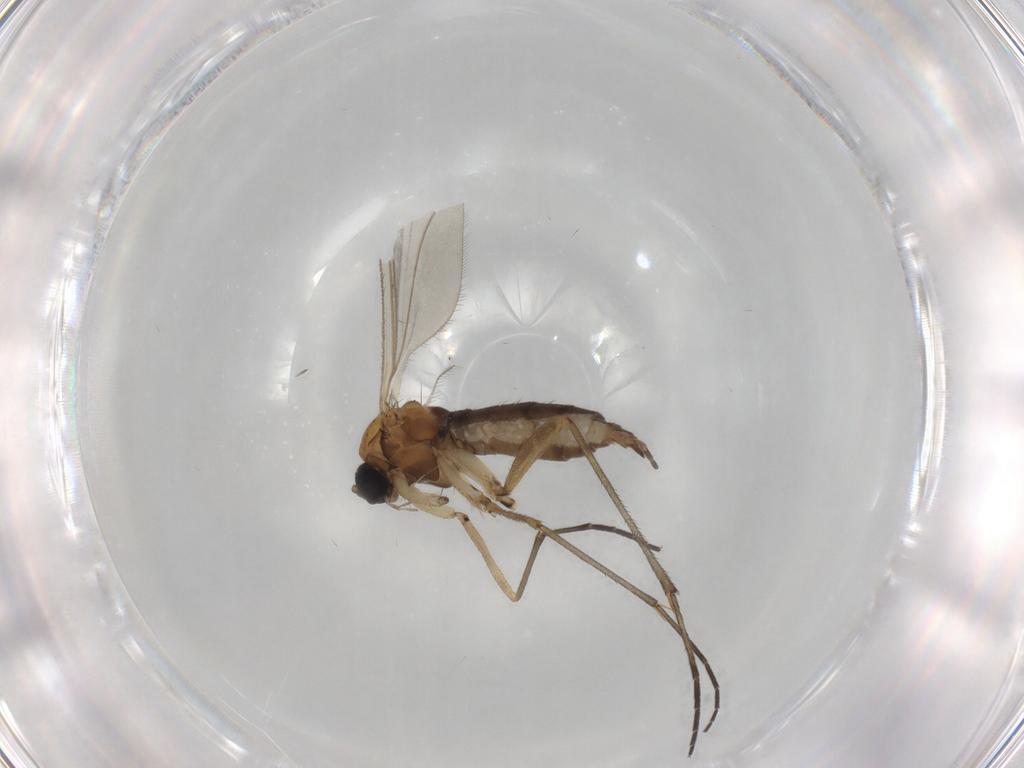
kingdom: Animalia
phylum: Arthropoda
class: Insecta
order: Diptera
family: Sciaridae
